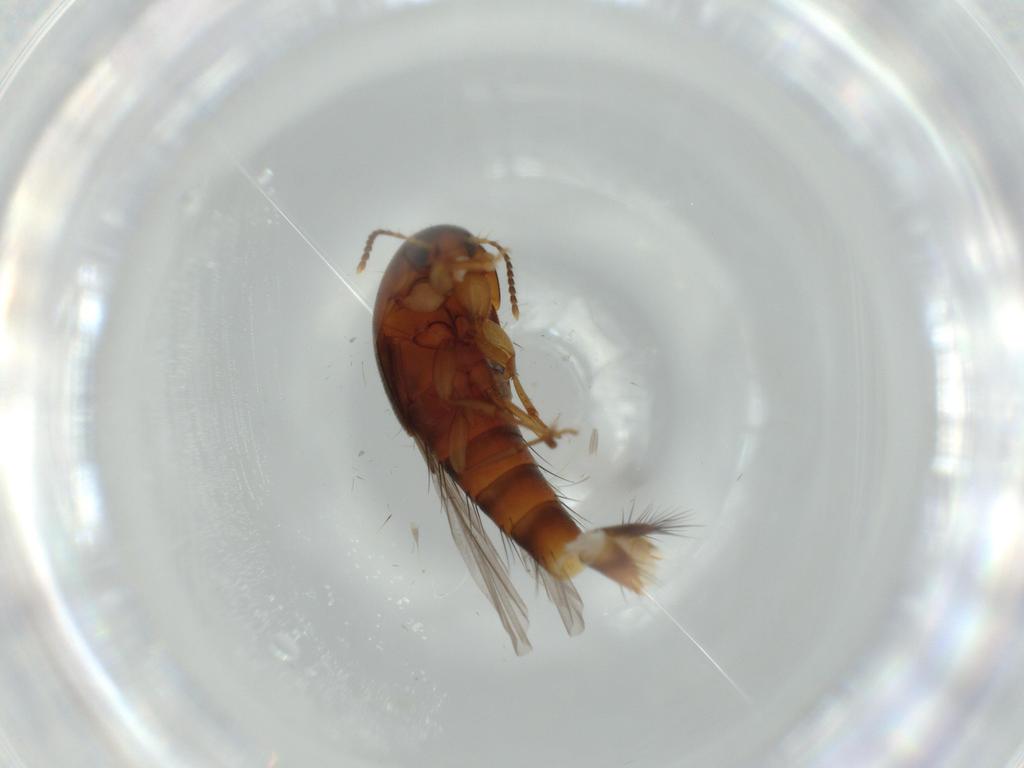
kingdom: Animalia
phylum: Arthropoda
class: Insecta
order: Coleoptera
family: Staphylinidae
